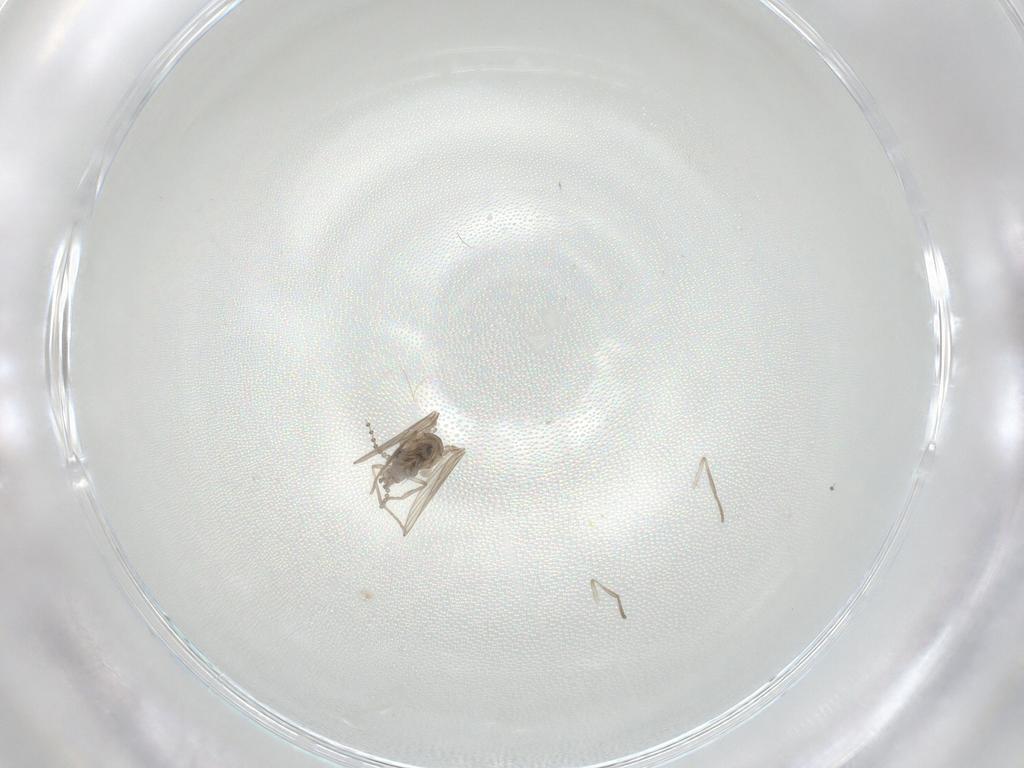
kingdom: Animalia
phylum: Arthropoda
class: Insecta
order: Diptera
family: Psychodidae
